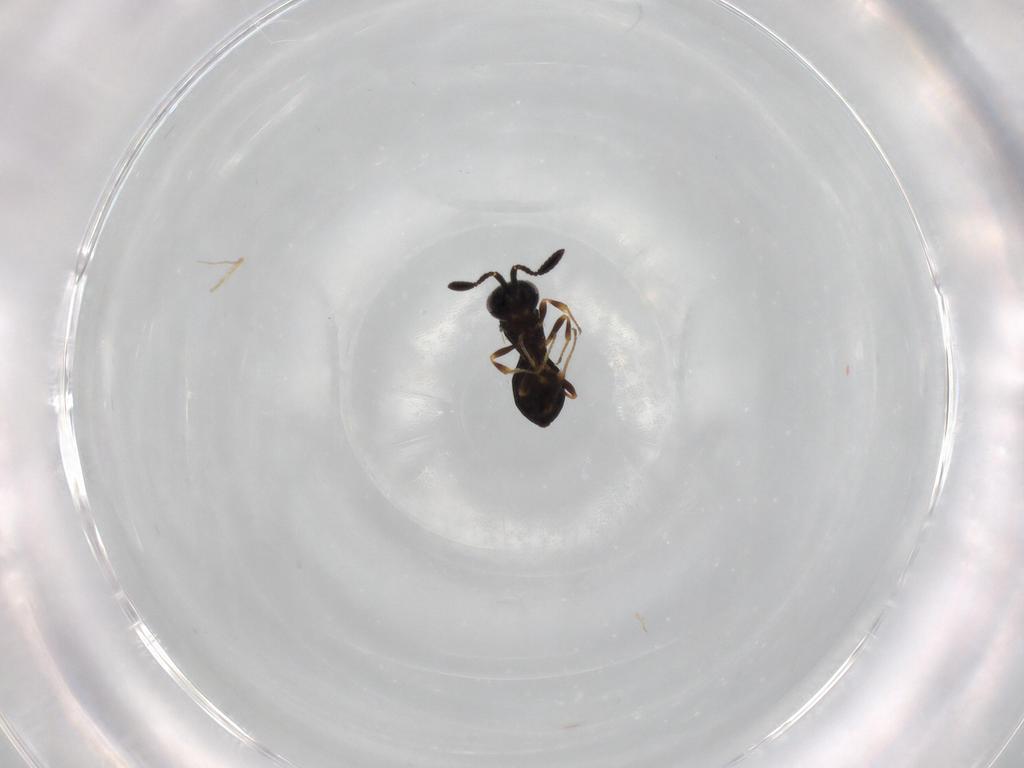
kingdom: Animalia
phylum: Arthropoda
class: Insecta
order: Hymenoptera
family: Scelionidae
